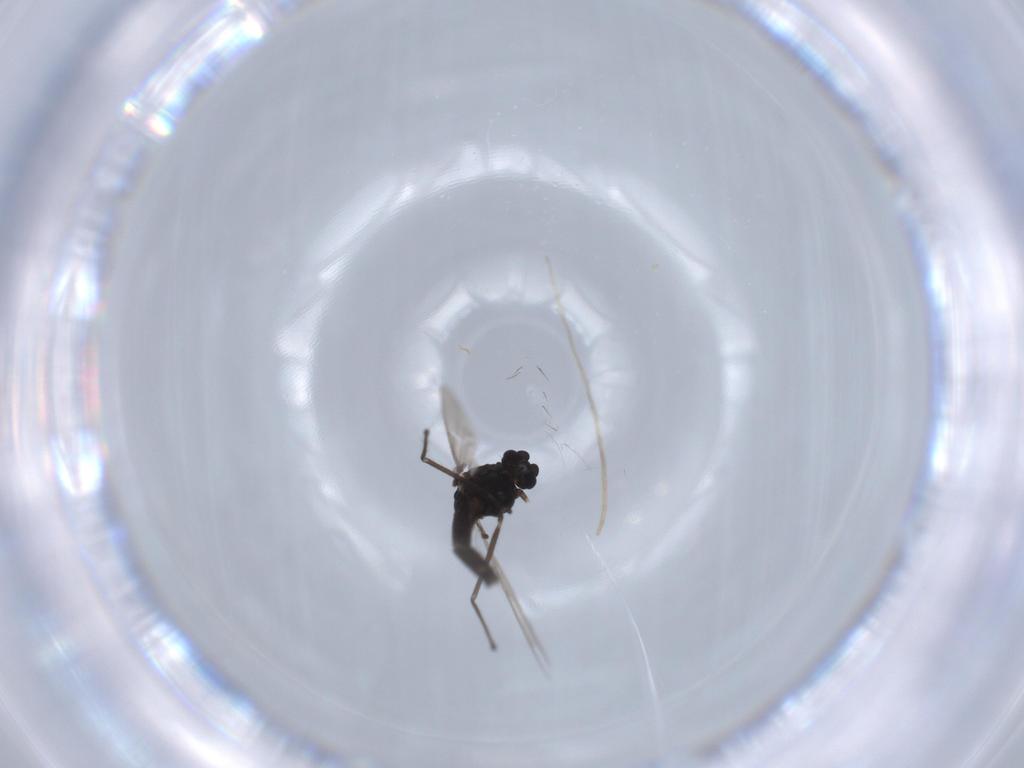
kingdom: Animalia
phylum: Arthropoda
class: Insecta
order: Diptera
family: Chironomidae
